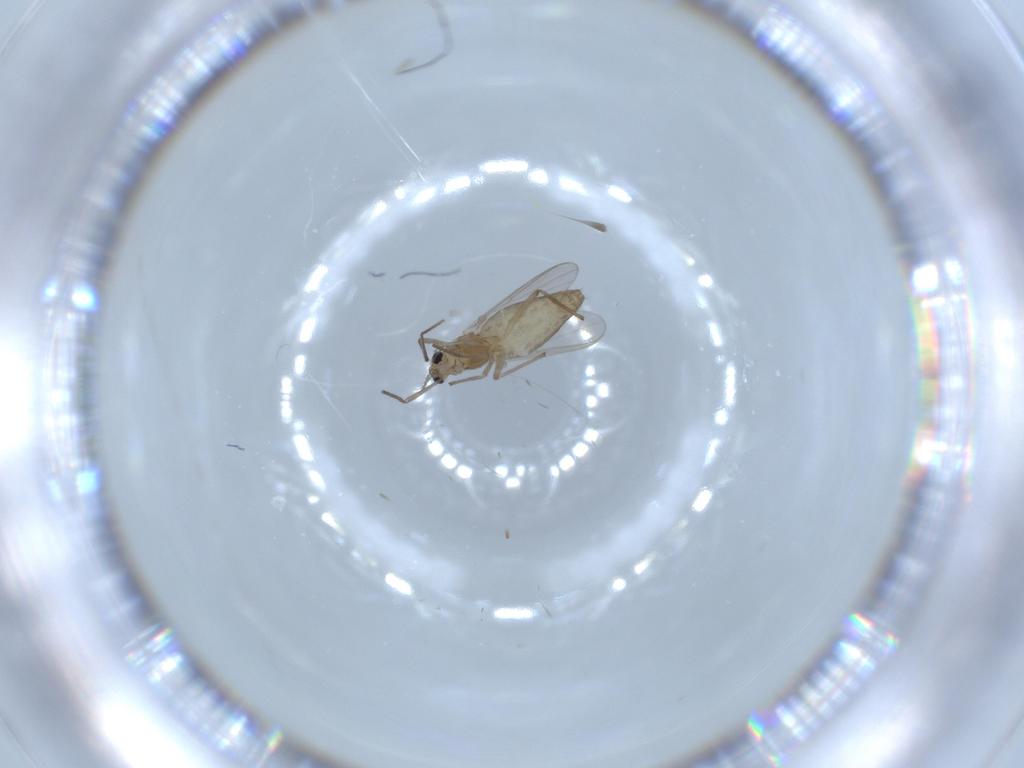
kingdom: Animalia
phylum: Arthropoda
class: Insecta
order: Diptera
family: Chironomidae
